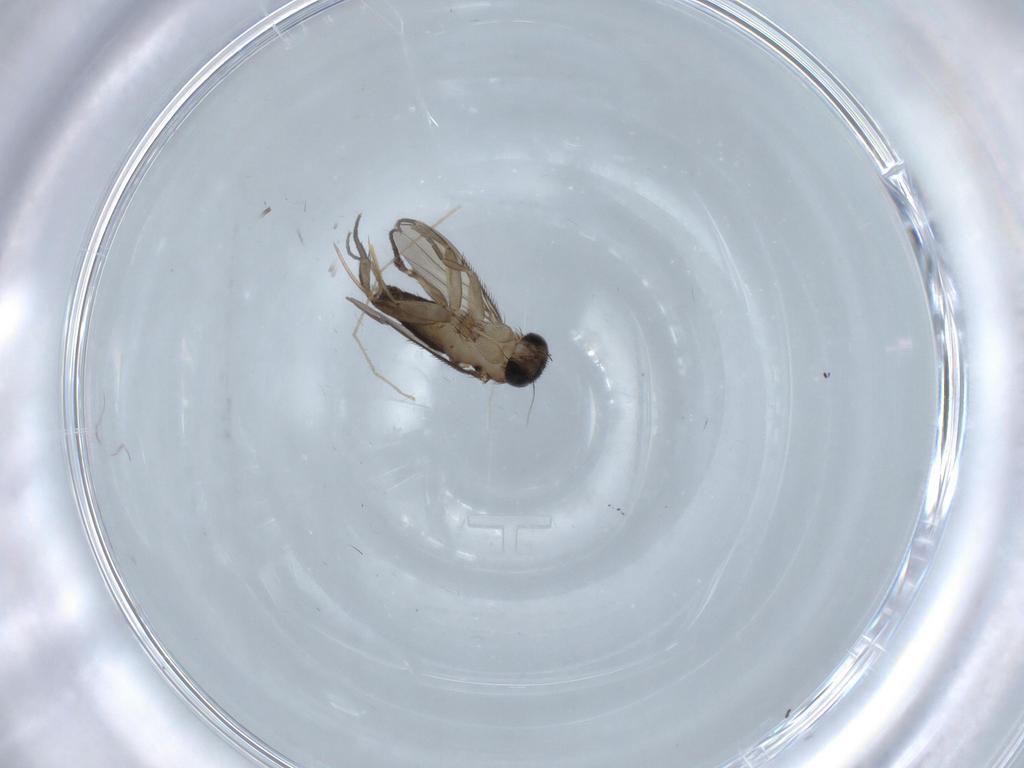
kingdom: Animalia
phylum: Arthropoda
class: Insecta
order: Diptera
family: Phoridae
